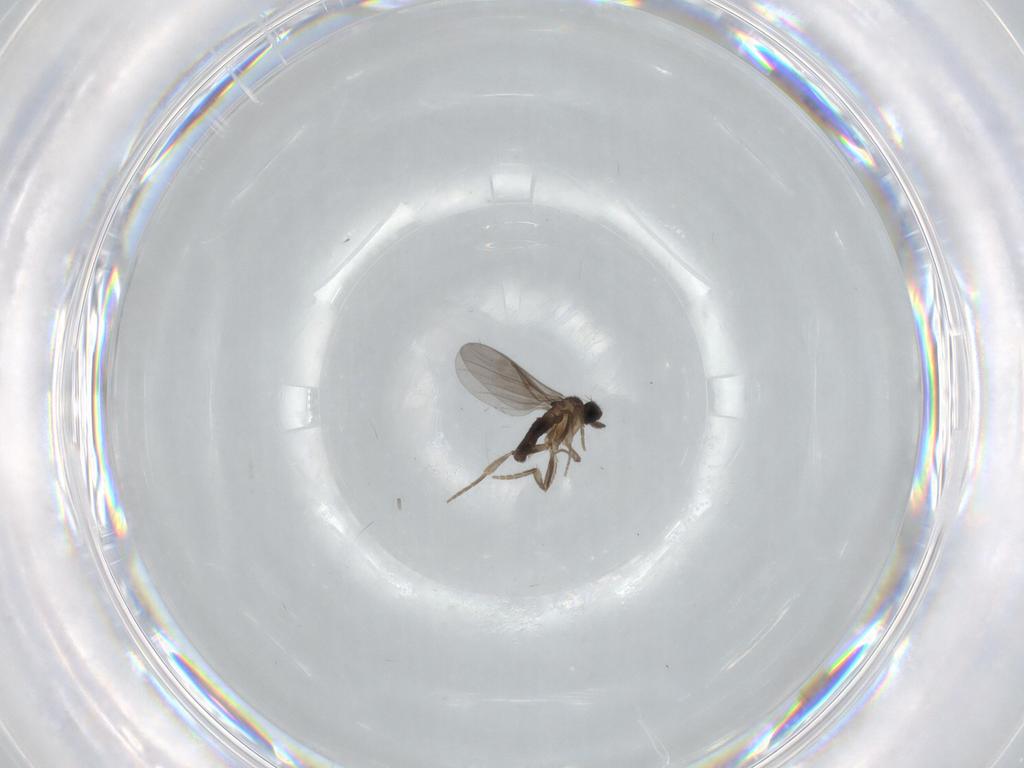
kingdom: Animalia
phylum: Arthropoda
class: Insecta
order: Diptera
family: Chironomidae
